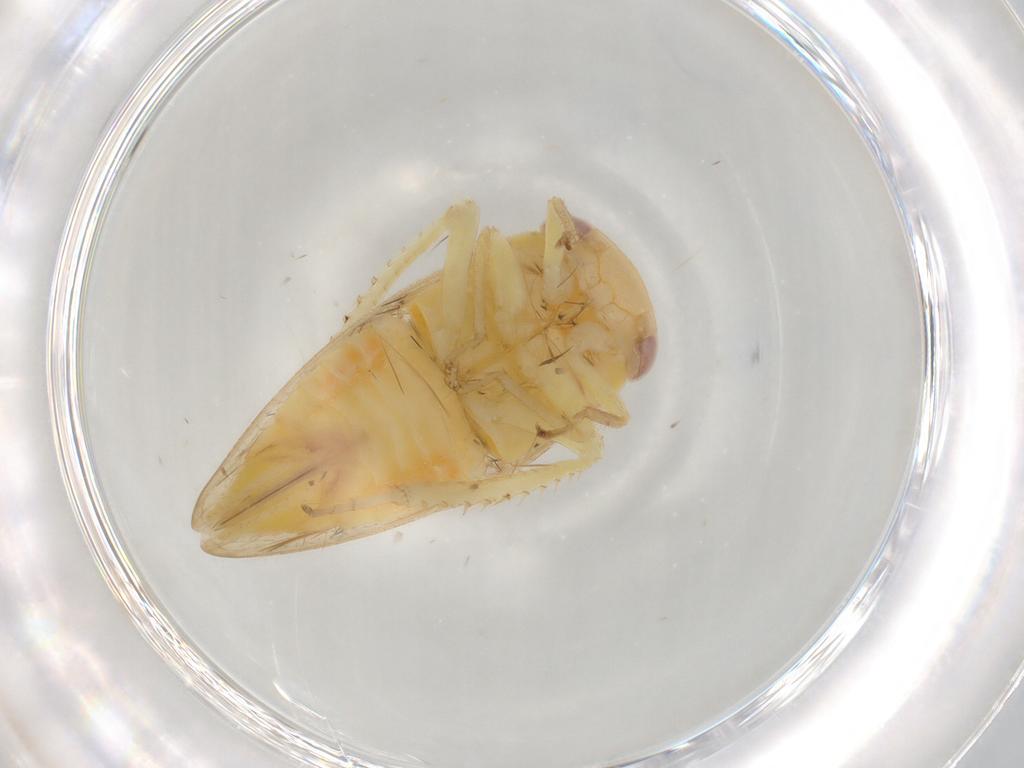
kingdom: Animalia
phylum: Arthropoda
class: Insecta
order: Hemiptera
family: Cicadellidae
